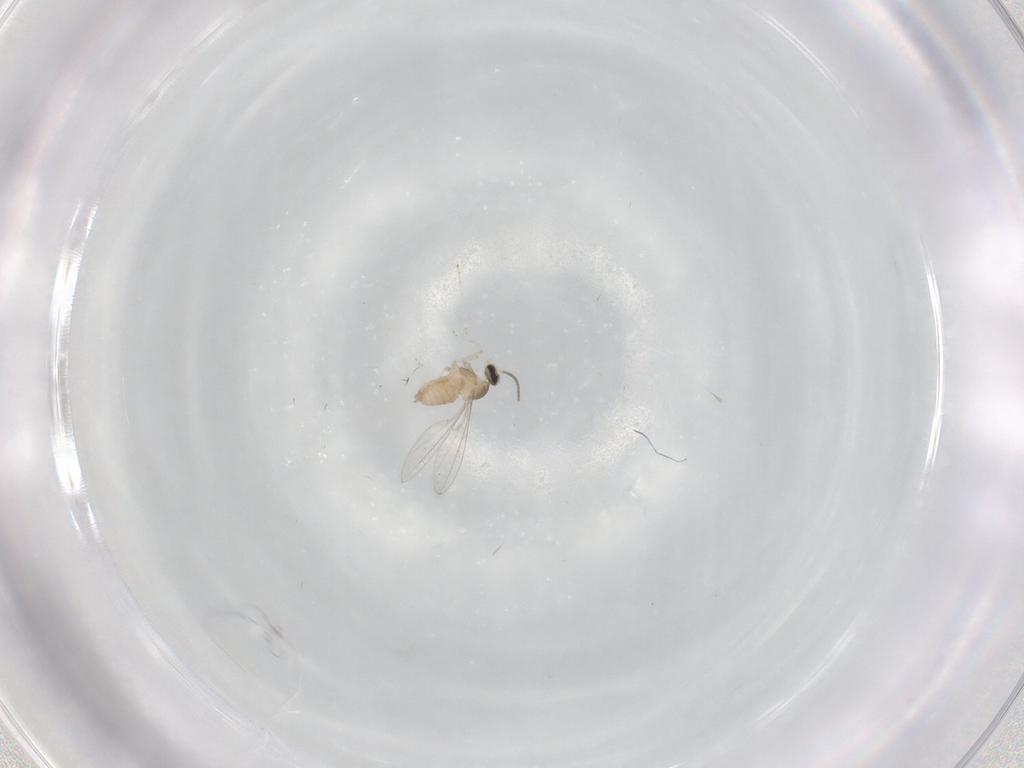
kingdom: Animalia
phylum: Arthropoda
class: Insecta
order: Diptera
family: Cecidomyiidae
